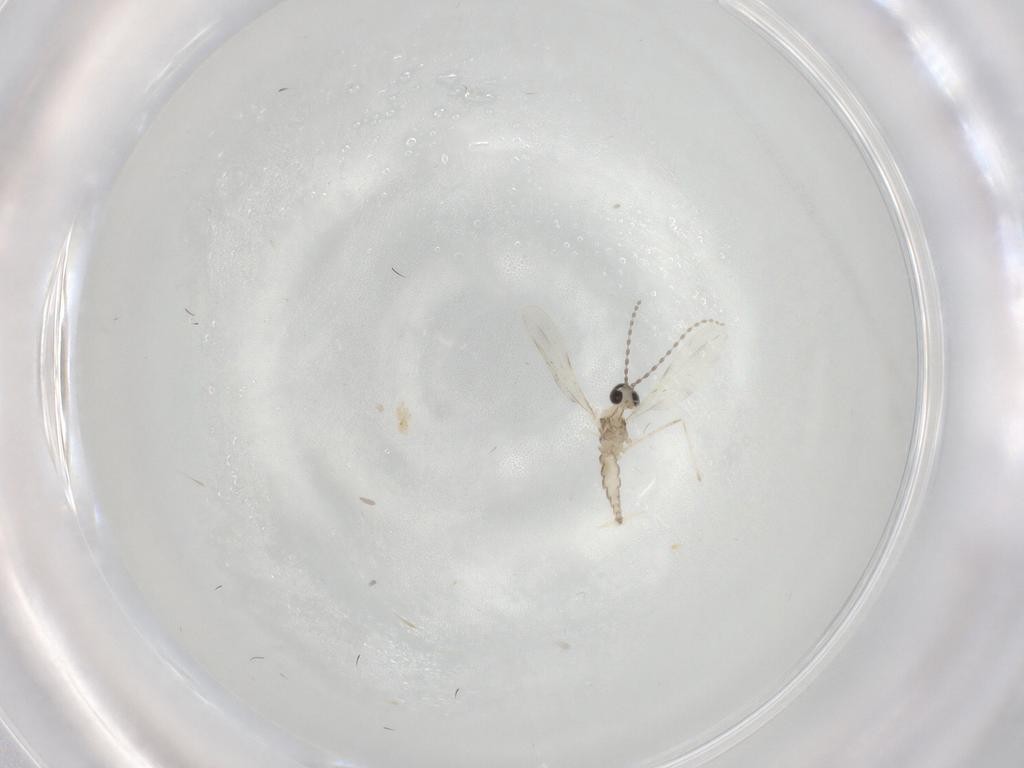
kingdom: Animalia
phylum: Arthropoda
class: Insecta
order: Diptera
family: Cecidomyiidae
